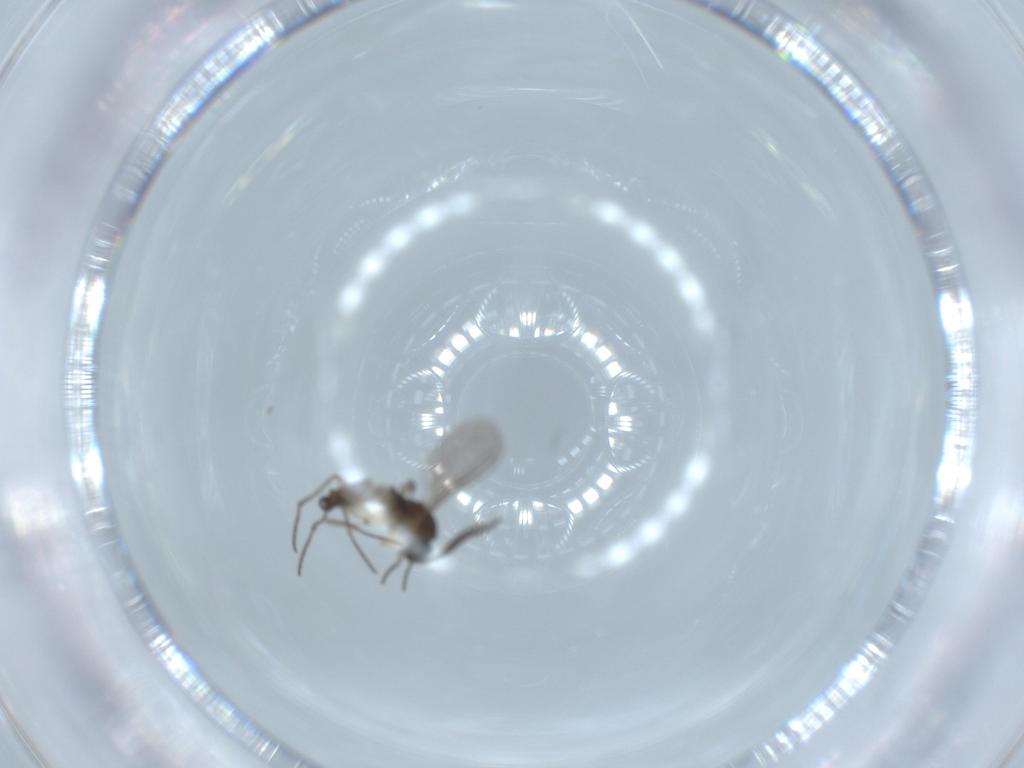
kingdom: Animalia
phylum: Arthropoda
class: Insecta
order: Diptera
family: Sciaridae
